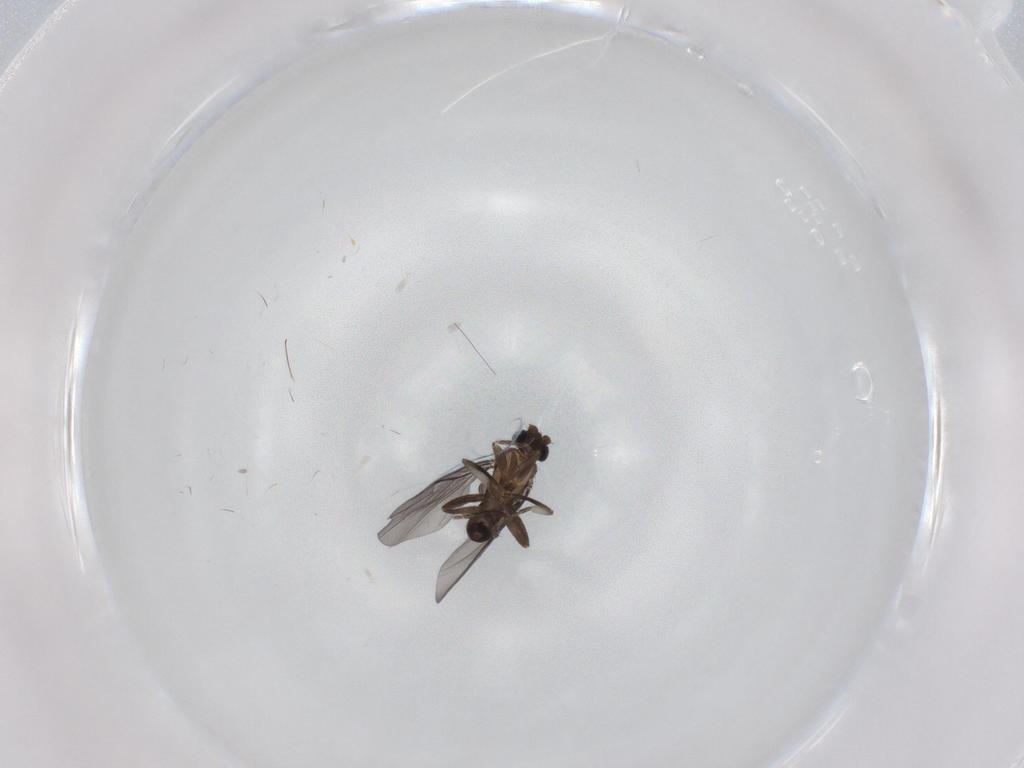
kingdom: Animalia
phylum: Arthropoda
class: Insecta
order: Diptera
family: Phoridae
